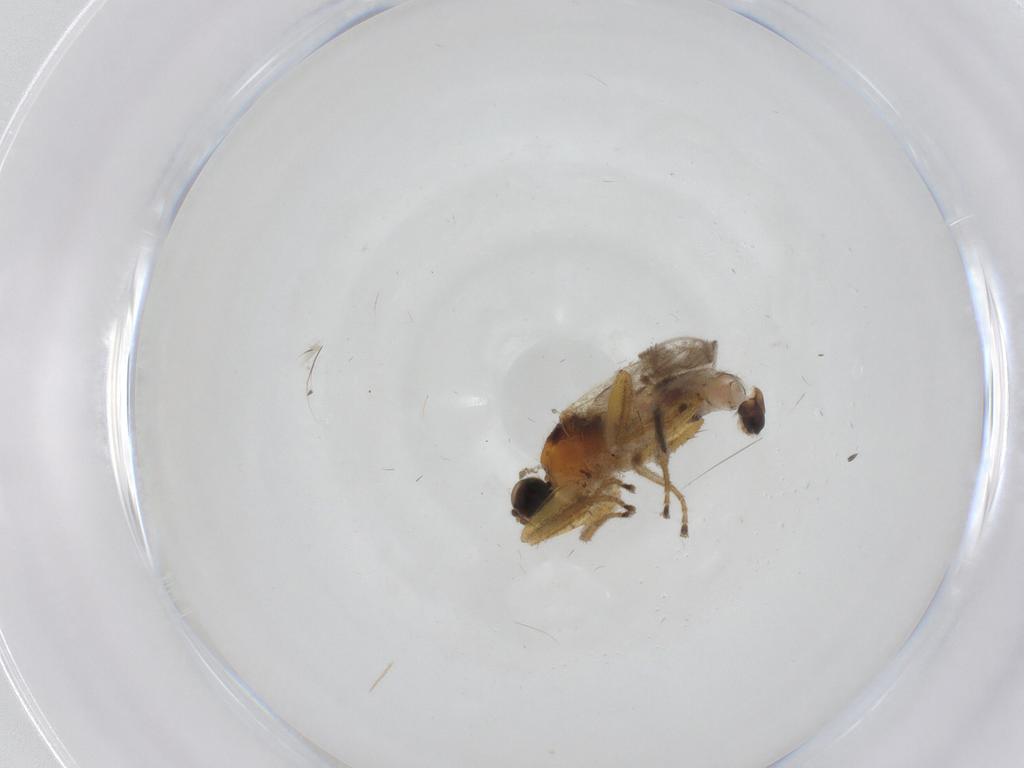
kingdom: Animalia
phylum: Arthropoda
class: Insecta
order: Diptera
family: Hybotidae
